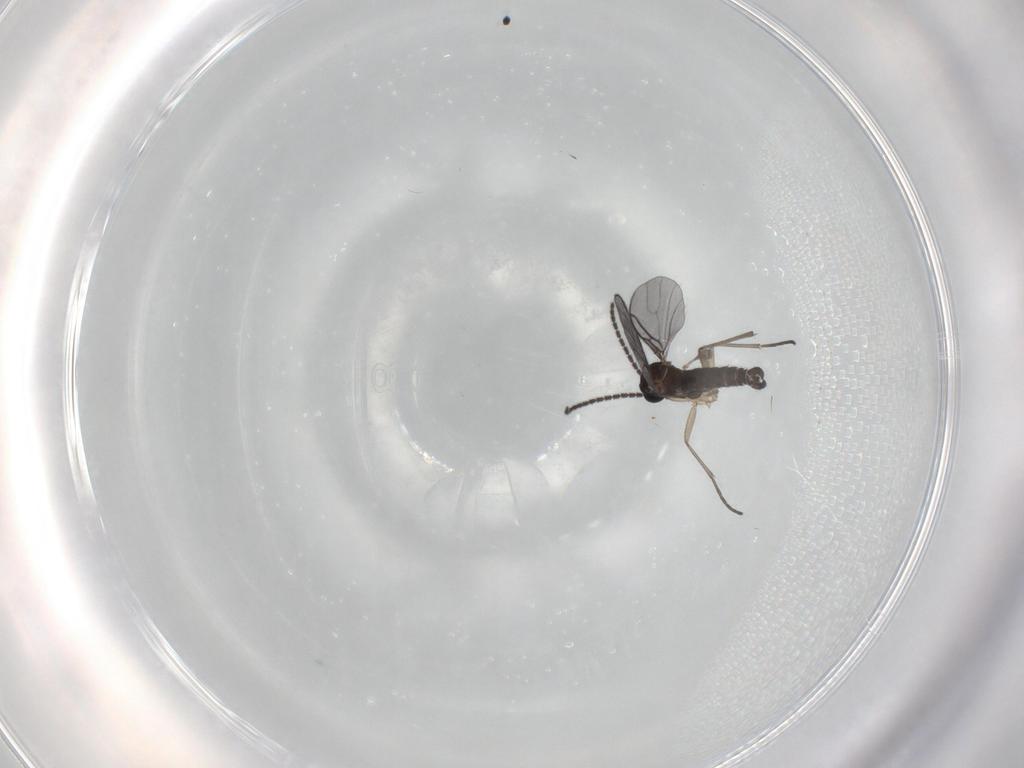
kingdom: Animalia
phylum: Arthropoda
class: Insecta
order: Diptera
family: Sciaridae
